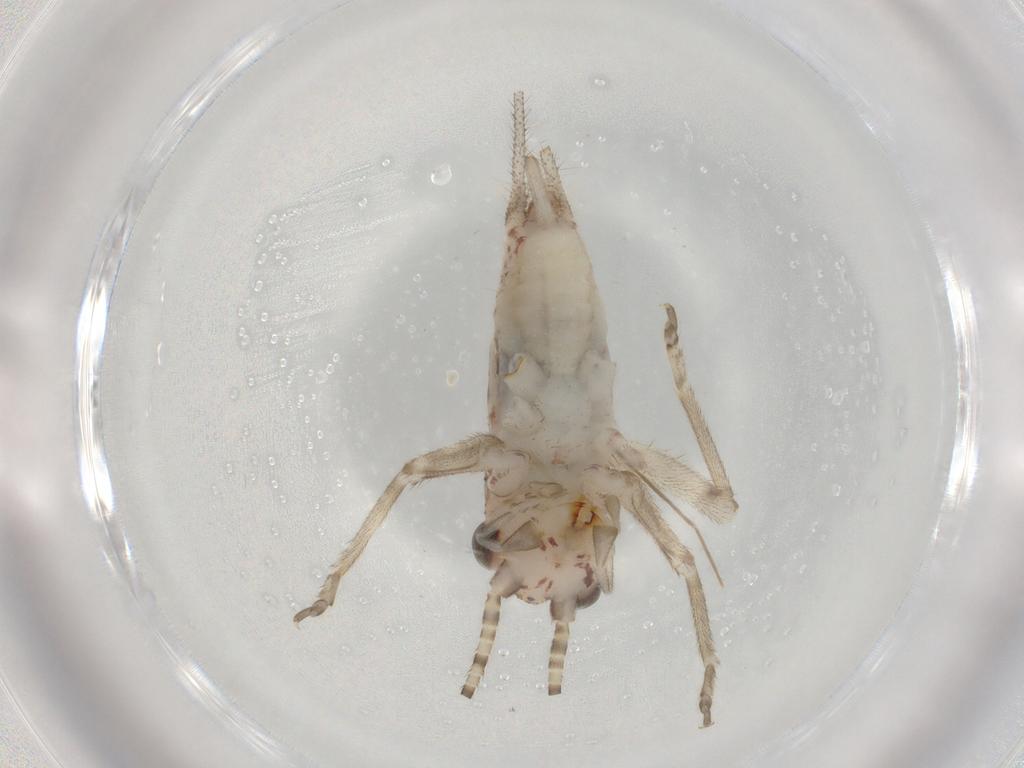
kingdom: Animalia
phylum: Arthropoda
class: Insecta
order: Orthoptera
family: Trigonidiidae
